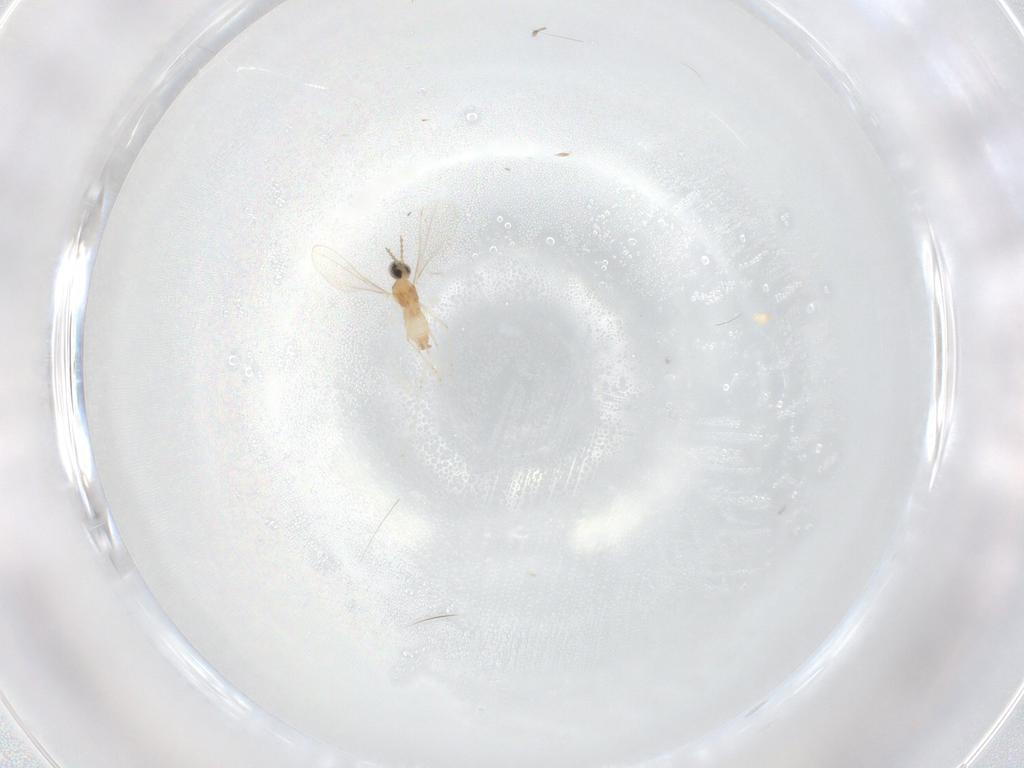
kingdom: Animalia
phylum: Arthropoda
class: Insecta
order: Diptera
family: Cecidomyiidae
